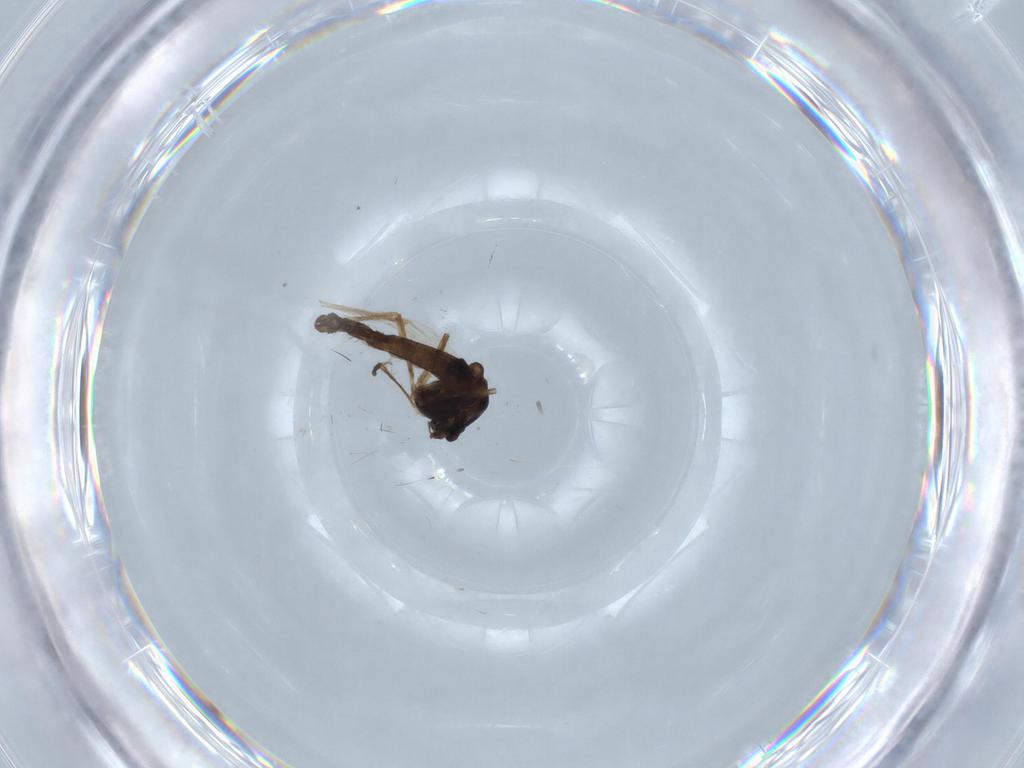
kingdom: Animalia
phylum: Arthropoda
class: Insecta
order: Diptera
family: Chironomidae
